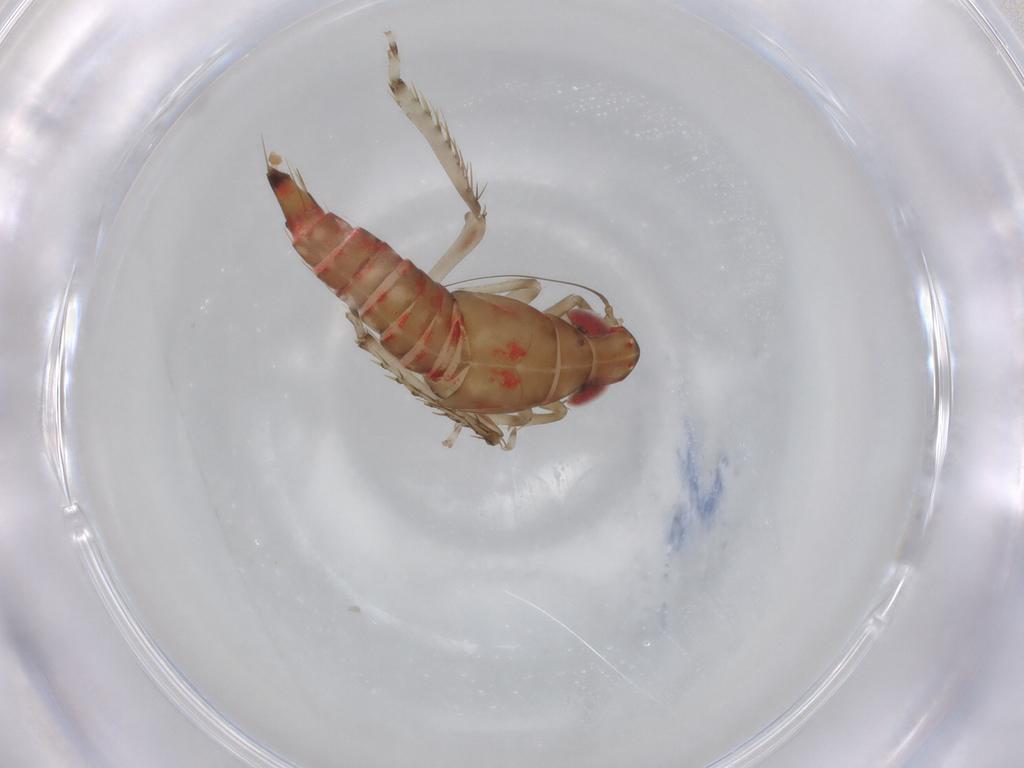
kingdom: Animalia
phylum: Arthropoda
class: Insecta
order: Hemiptera
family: Cicadellidae
